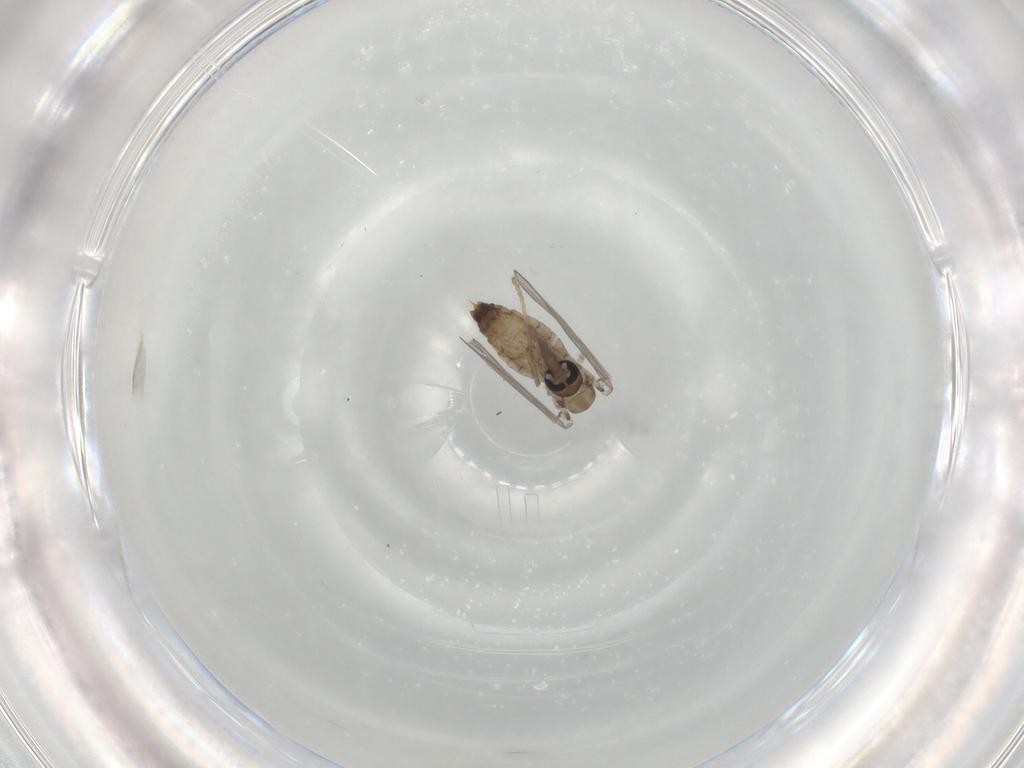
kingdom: Animalia
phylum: Arthropoda
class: Insecta
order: Diptera
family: Psychodidae
